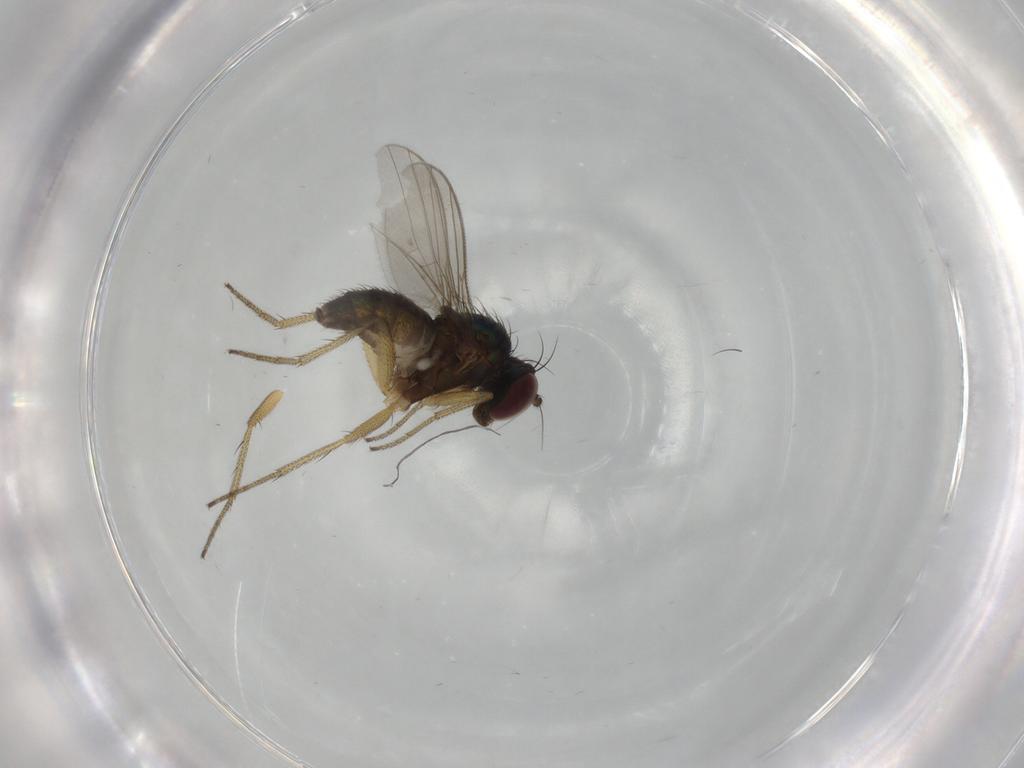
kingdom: Animalia
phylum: Arthropoda
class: Insecta
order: Diptera
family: Dolichopodidae
